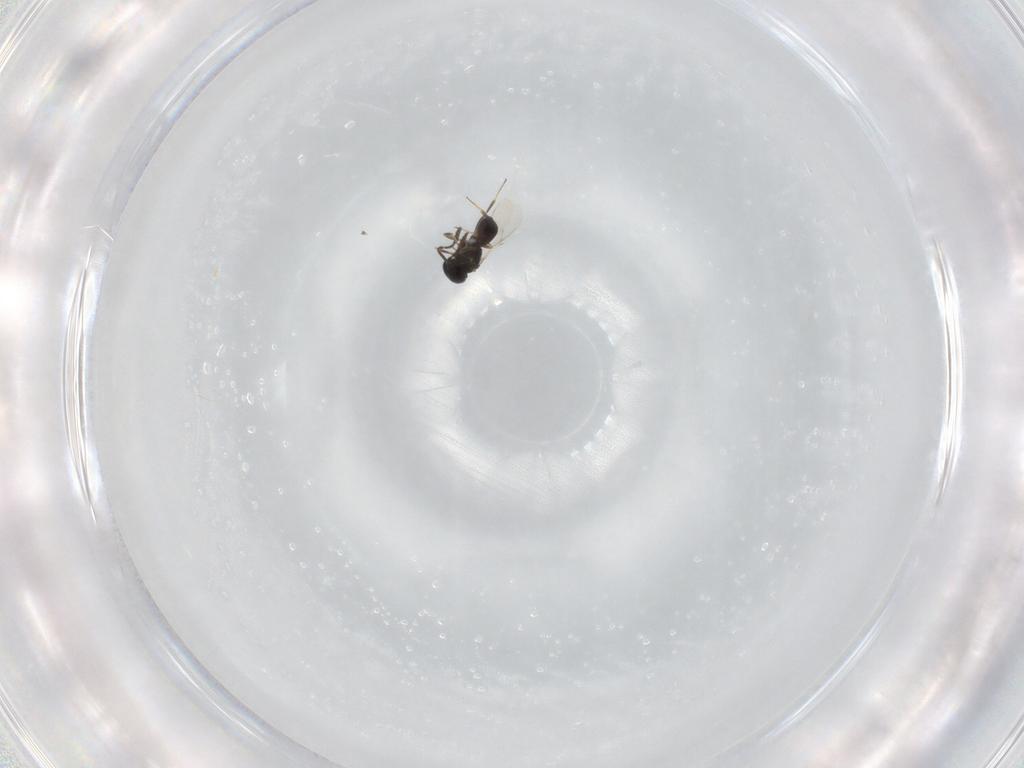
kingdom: Animalia
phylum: Arthropoda
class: Insecta
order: Hymenoptera
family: Scelionidae
